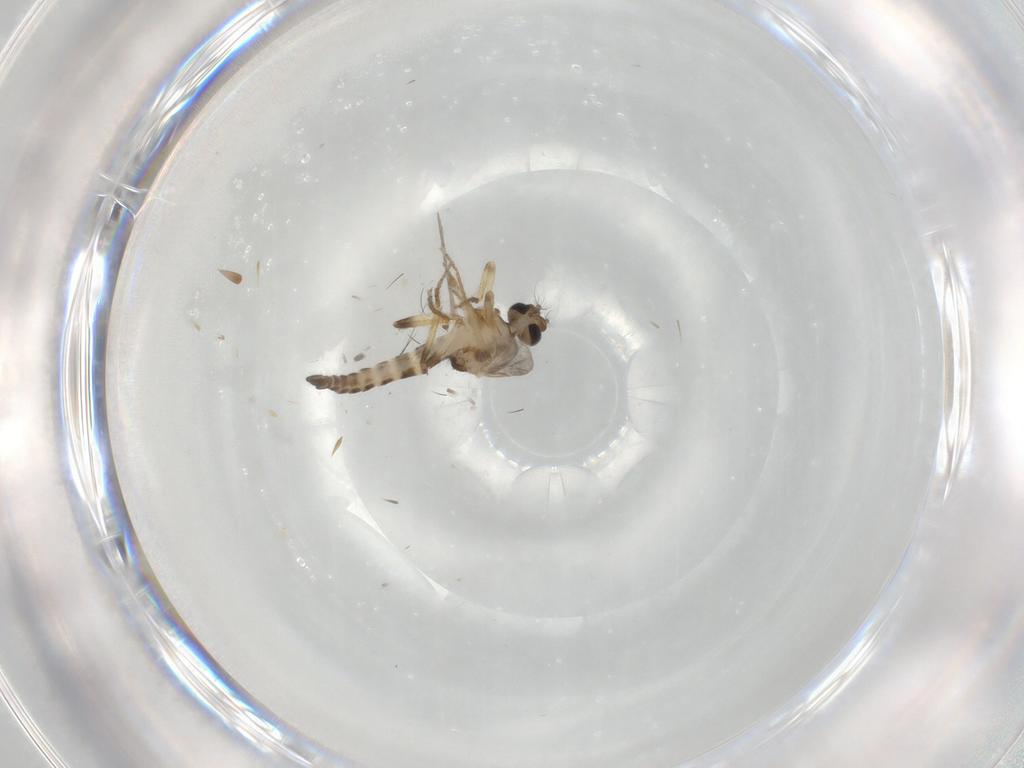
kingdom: Animalia
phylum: Arthropoda
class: Insecta
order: Diptera
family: Ceratopogonidae
